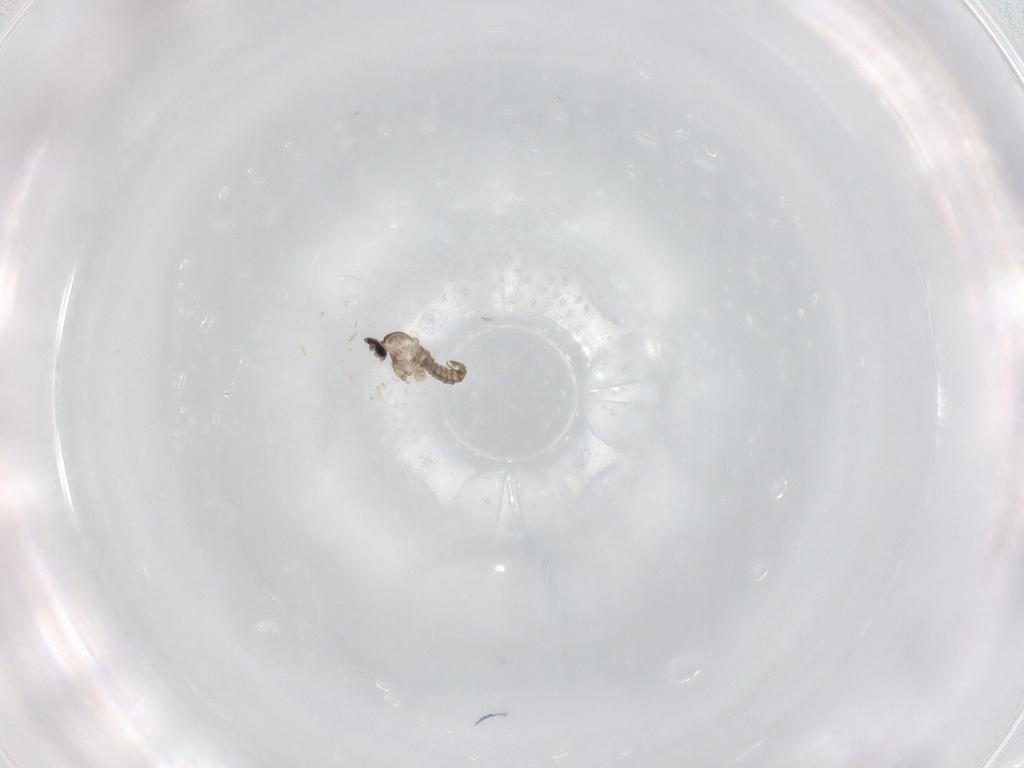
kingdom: Animalia
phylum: Arthropoda
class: Insecta
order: Diptera
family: Cecidomyiidae
